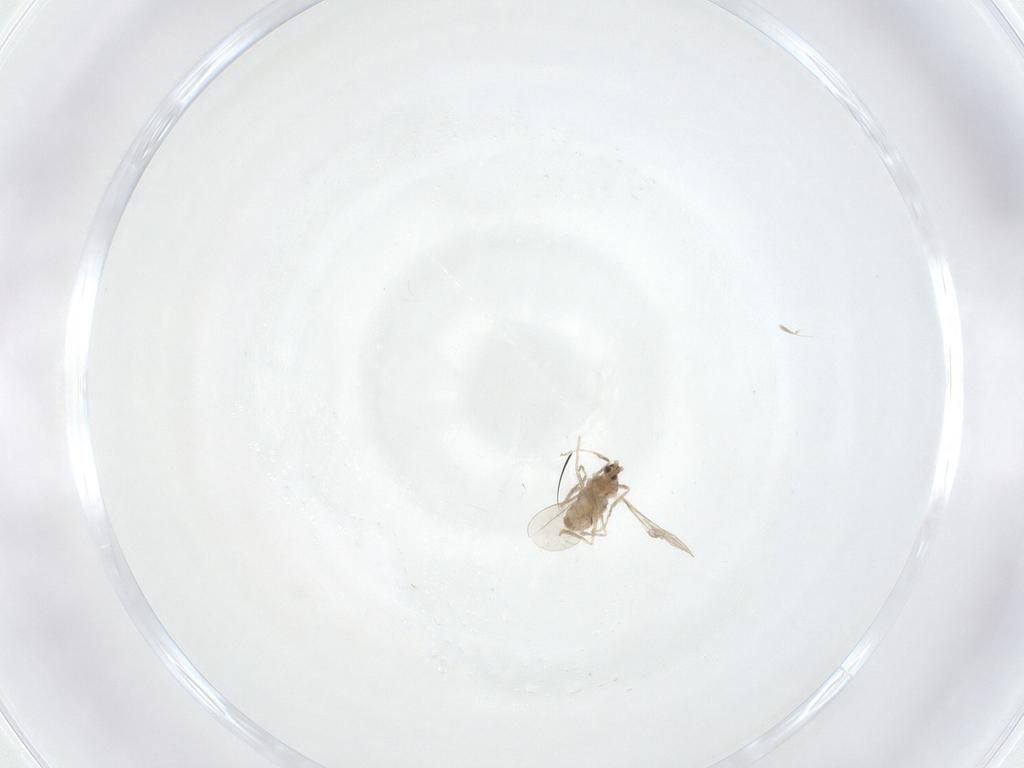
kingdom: Animalia
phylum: Arthropoda
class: Insecta
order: Diptera
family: Cecidomyiidae
